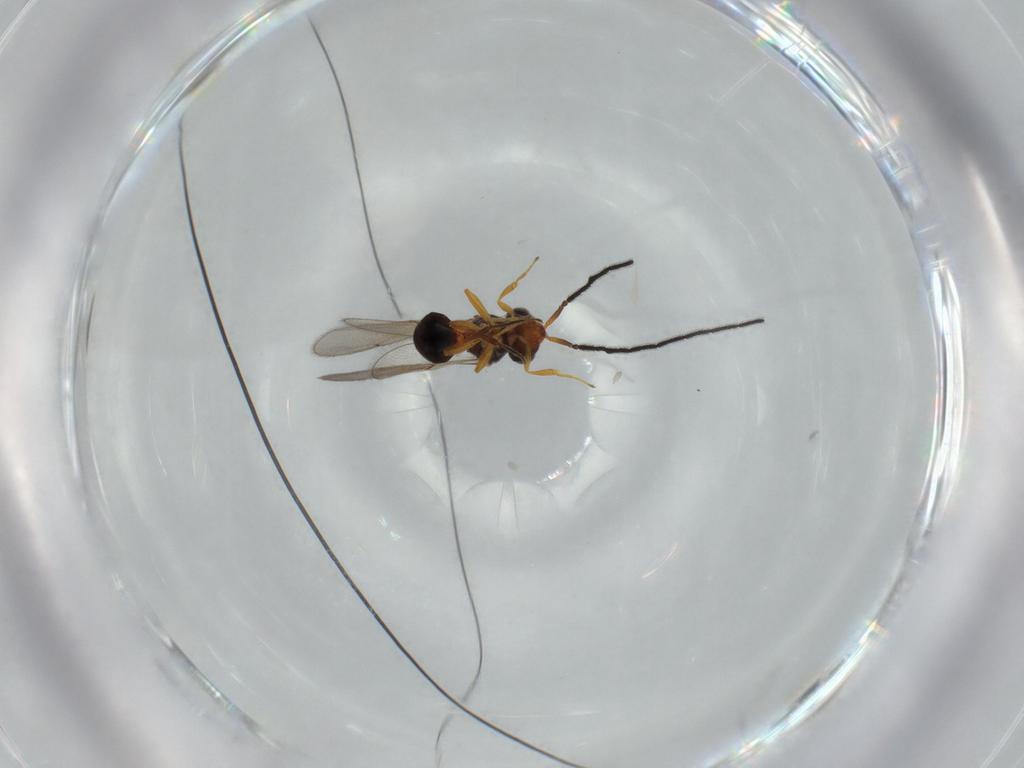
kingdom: Animalia
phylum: Arthropoda
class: Insecta
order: Hymenoptera
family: Scelionidae
